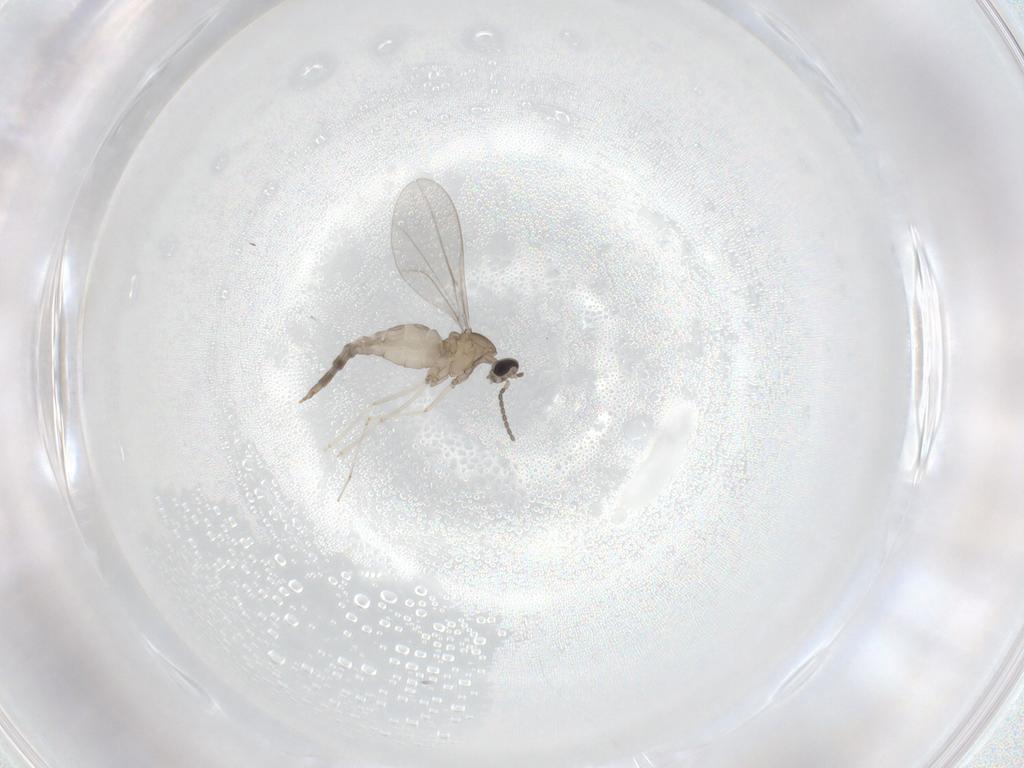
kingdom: Animalia
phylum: Arthropoda
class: Insecta
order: Diptera
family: Cecidomyiidae
